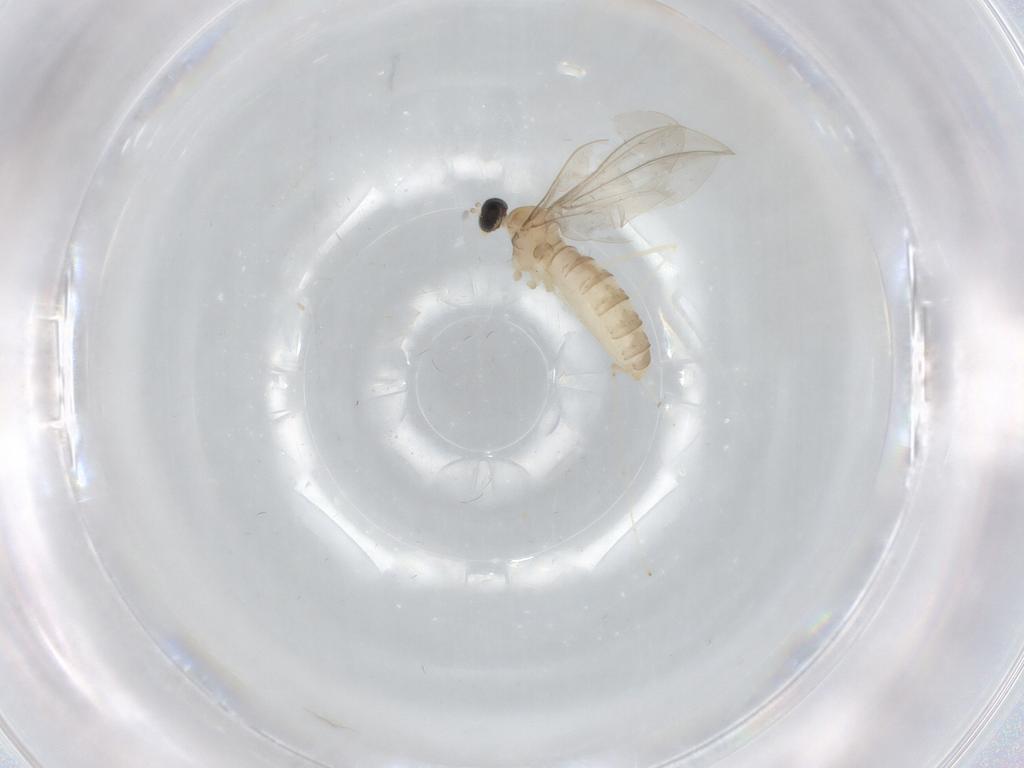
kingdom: Animalia
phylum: Arthropoda
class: Insecta
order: Diptera
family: Cecidomyiidae
